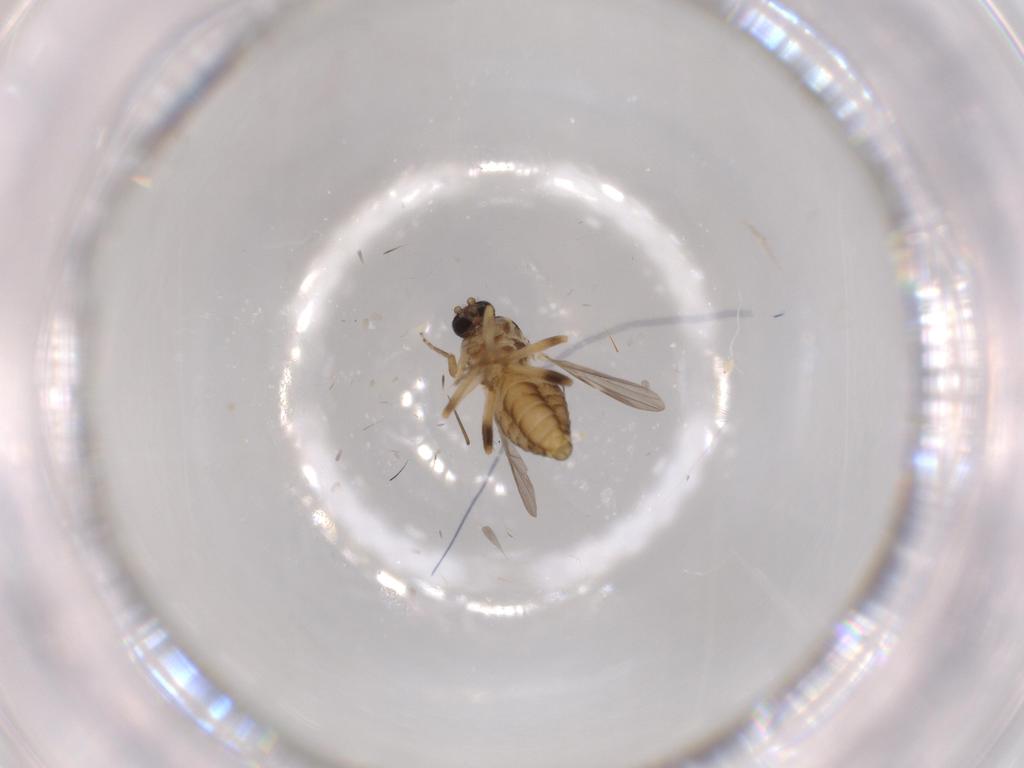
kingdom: Animalia
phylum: Arthropoda
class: Insecta
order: Diptera
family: Sciaridae
